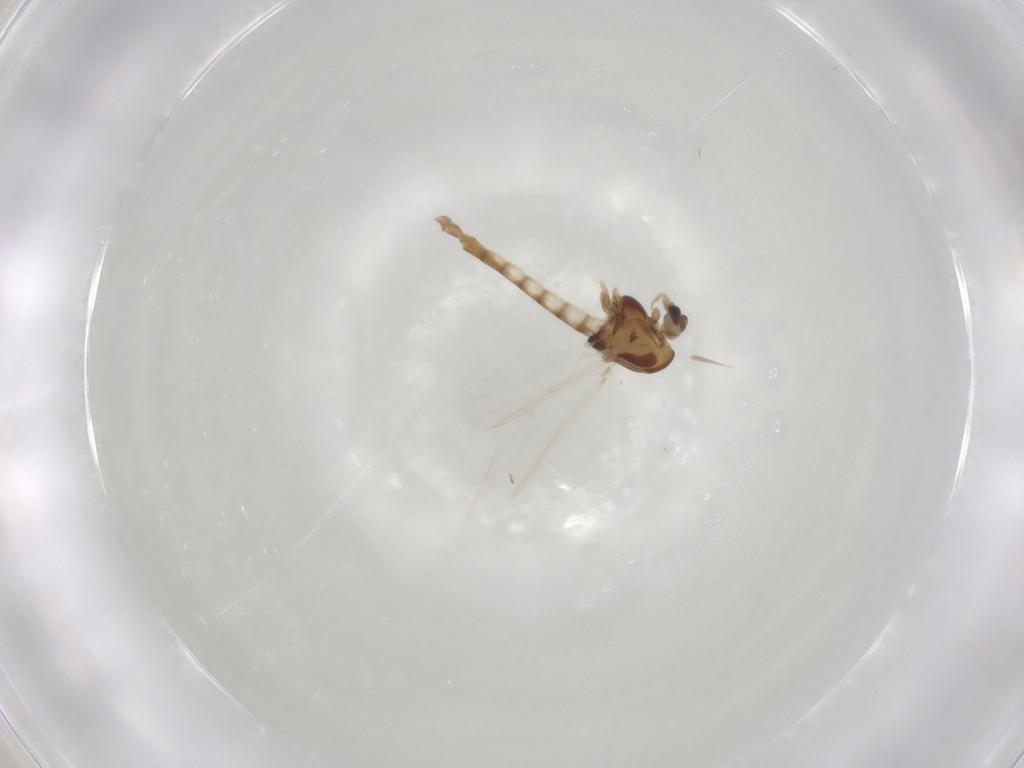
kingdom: Animalia
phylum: Arthropoda
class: Insecta
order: Diptera
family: Chironomidae
